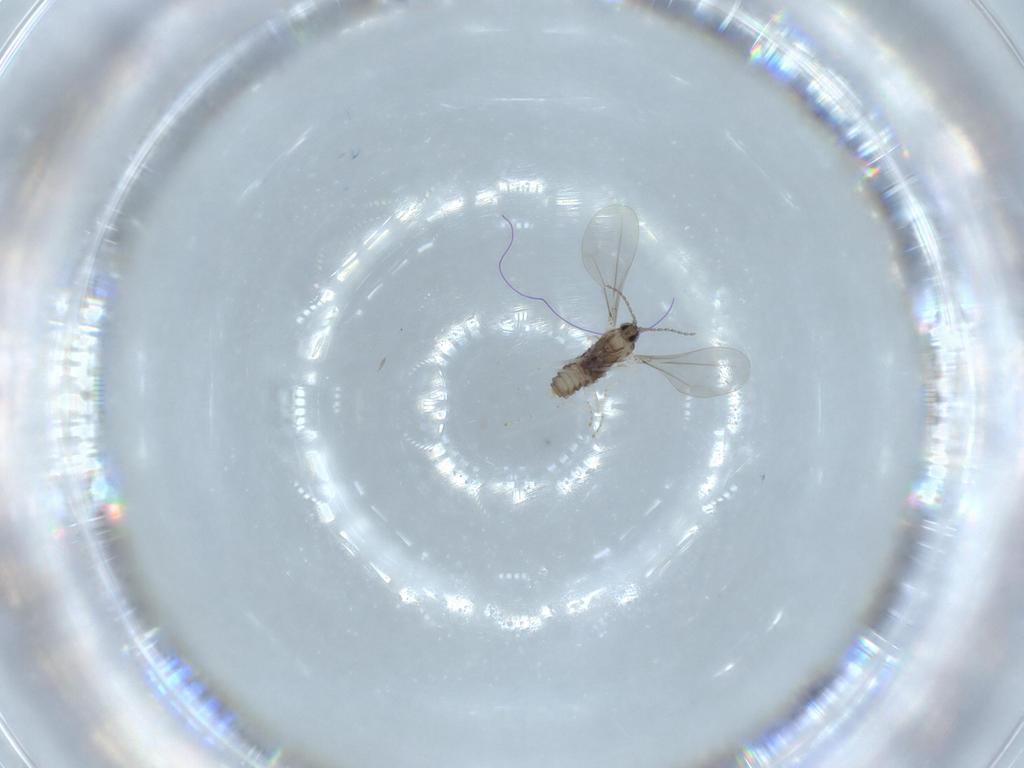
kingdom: Animalia
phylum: Arthropoda
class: Insecta
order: Diptera
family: Cecidomyiidae
